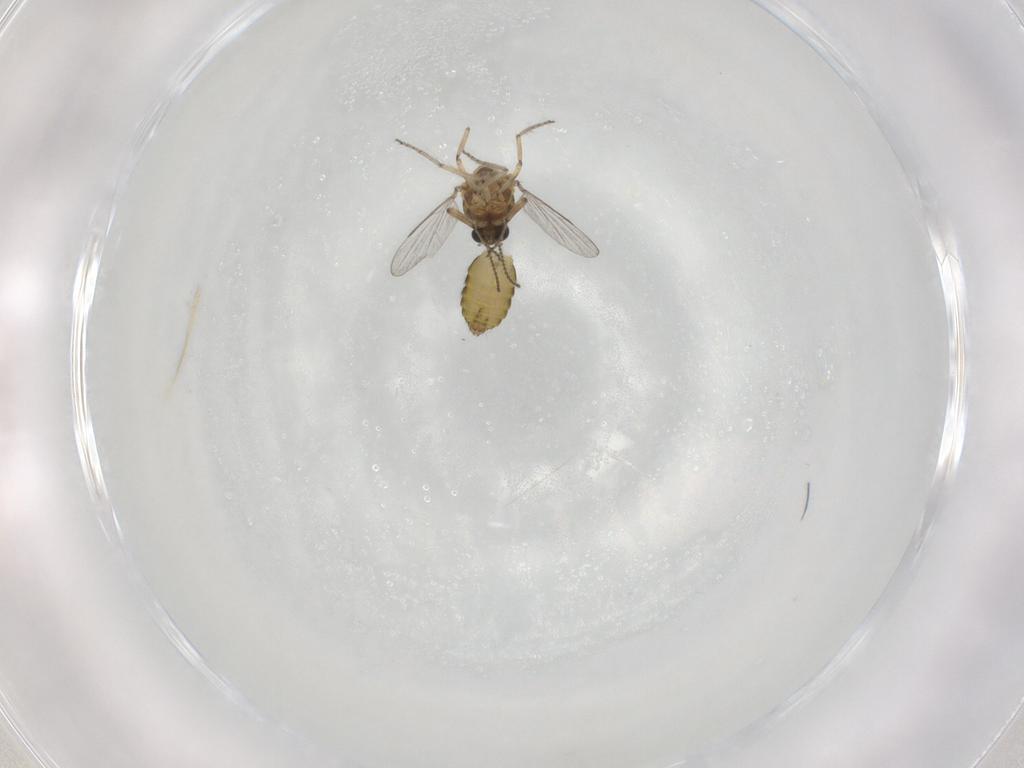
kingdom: Animalia
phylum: Arthropoda
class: Insecta
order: Diptera
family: Ceratopogonidae
